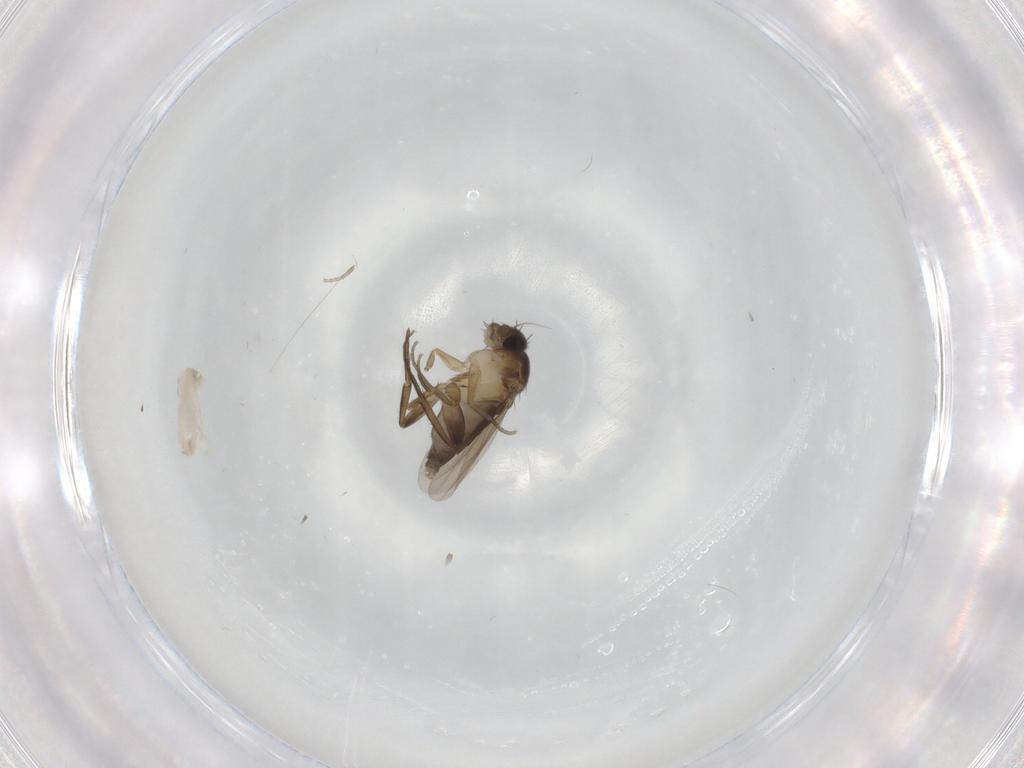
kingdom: Animalia
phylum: Arthropoda
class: Insecta
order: Diptera
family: Phoridae
